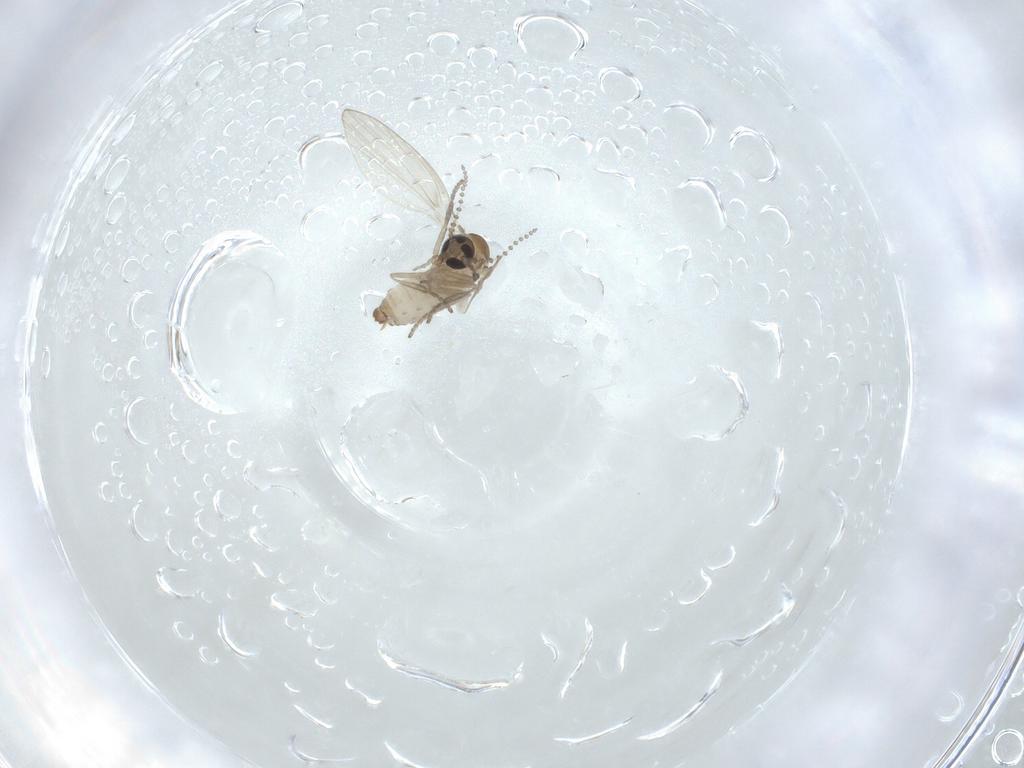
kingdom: Animalia
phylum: Arthropoda
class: Insecta
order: Diptera
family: Psychodidae
